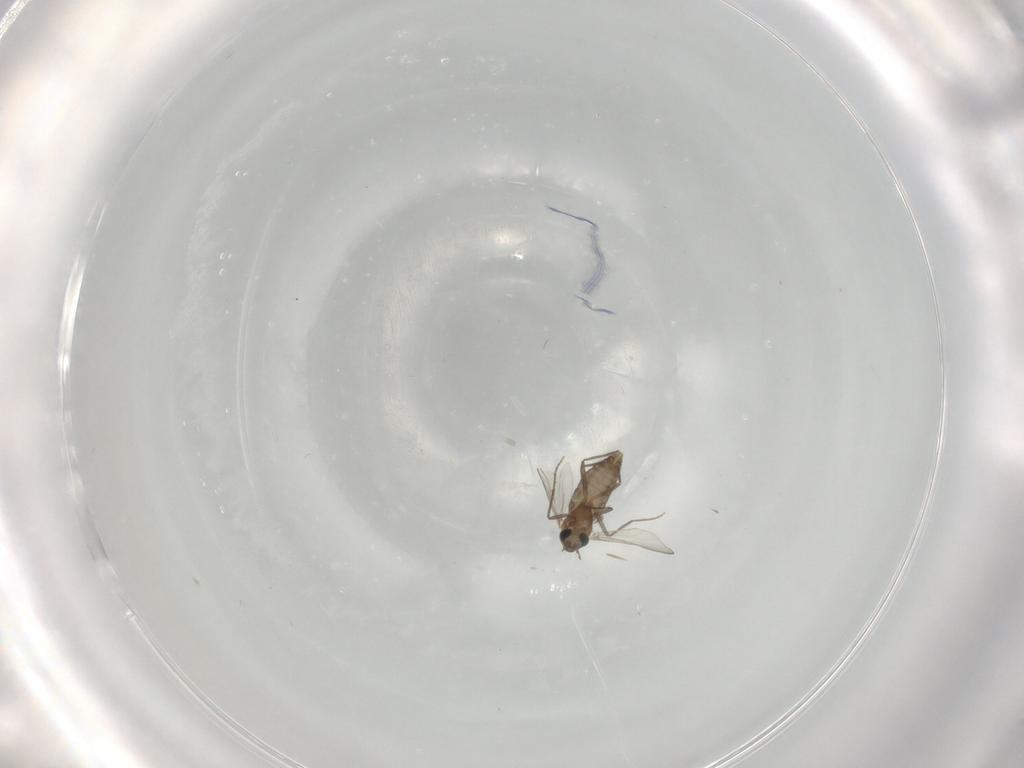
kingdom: Animalia
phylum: Arthropoda
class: Insecta
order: Diptera
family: Chironomidae
